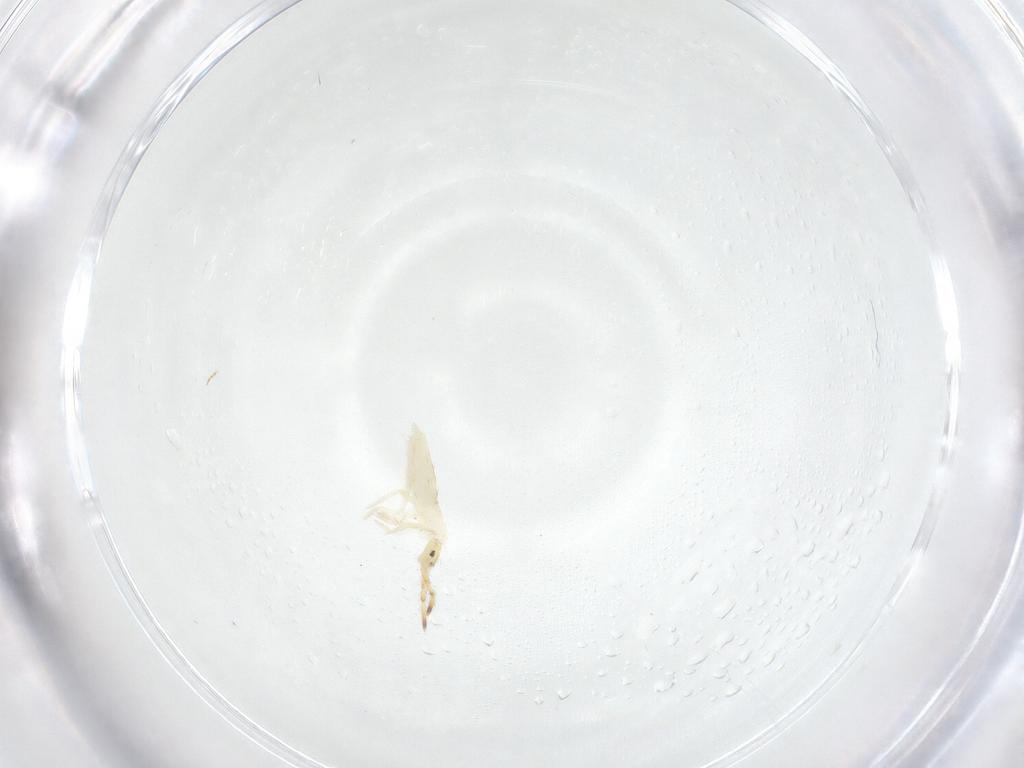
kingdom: Animalia
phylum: Arthropoda
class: Collembola
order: Entomobryomorpha
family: Entomobryidae
